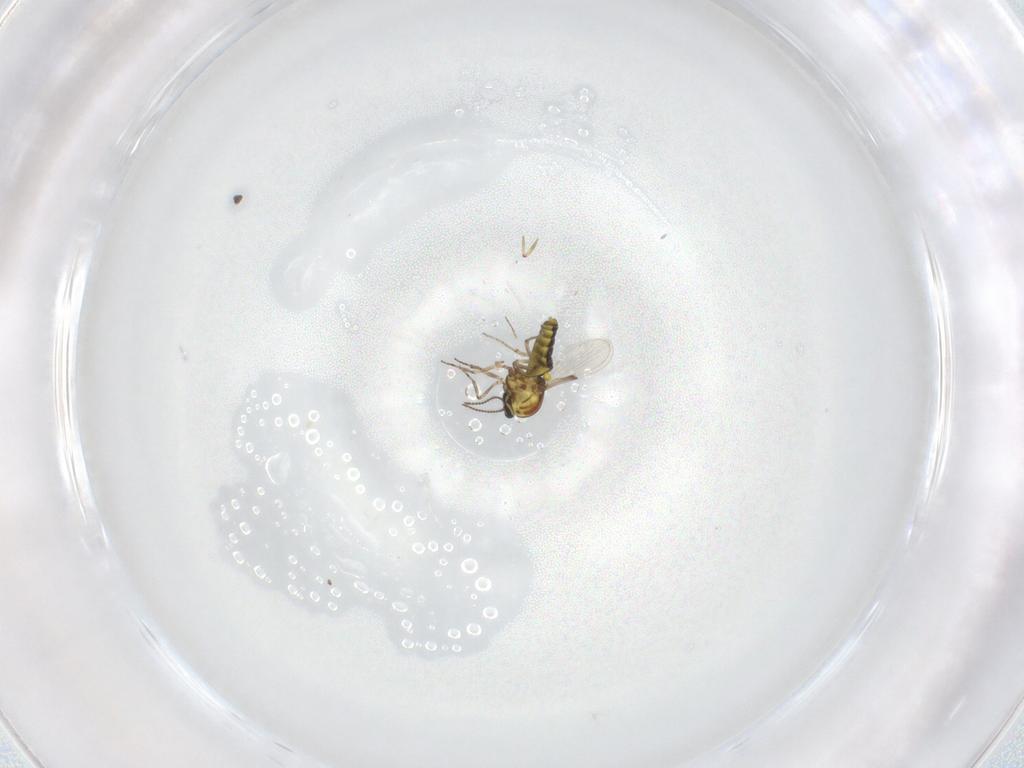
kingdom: Animalia
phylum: Arthropoda
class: Insecta
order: Diptera
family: Ceratopogonidae
